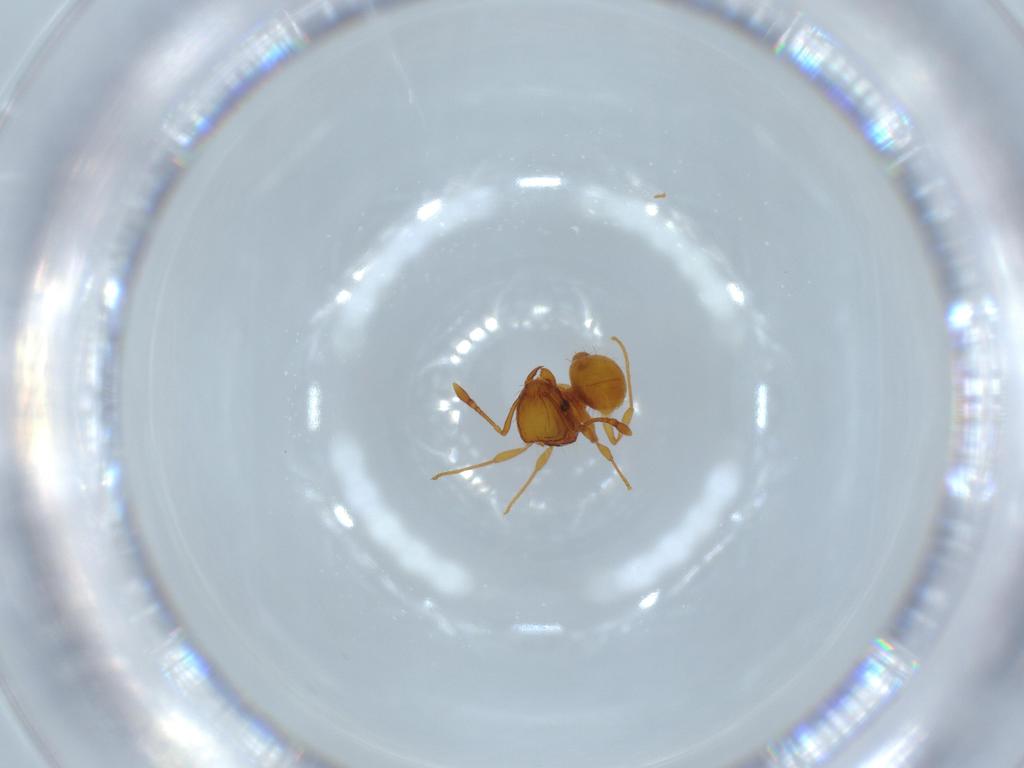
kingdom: Animalia
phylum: Arthropoda
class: Insecta
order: Hymenoptera
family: Formicidae
